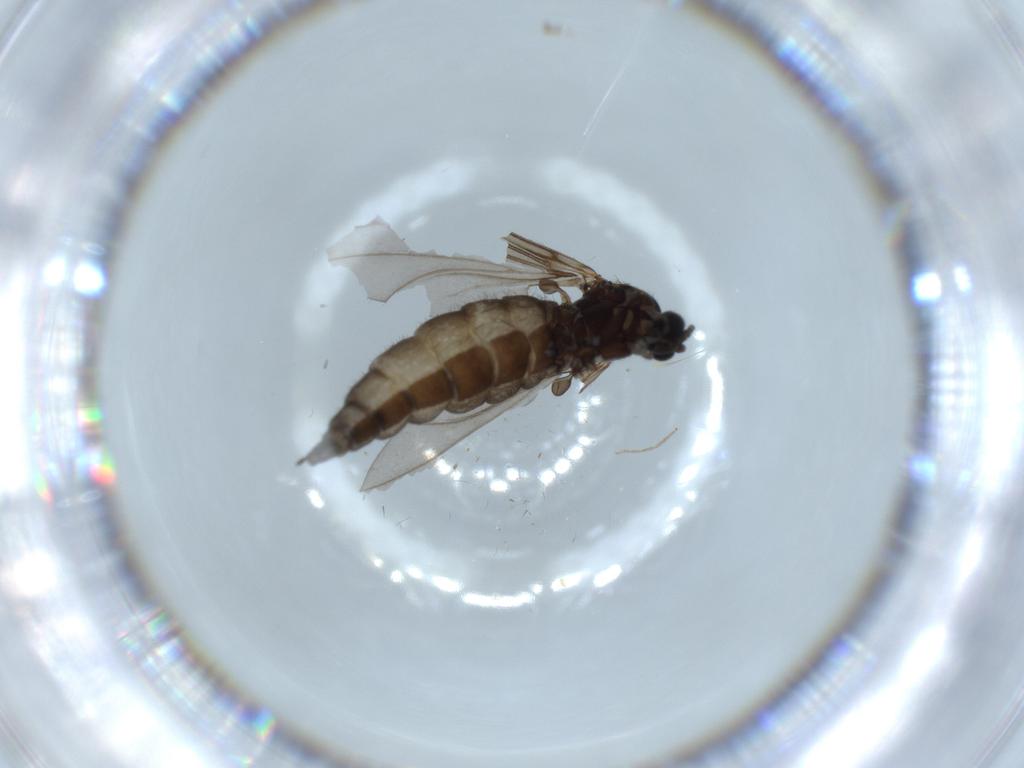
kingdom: Animalia
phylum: Arthropoda
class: Insecta
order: Diptera
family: Sciaridae
